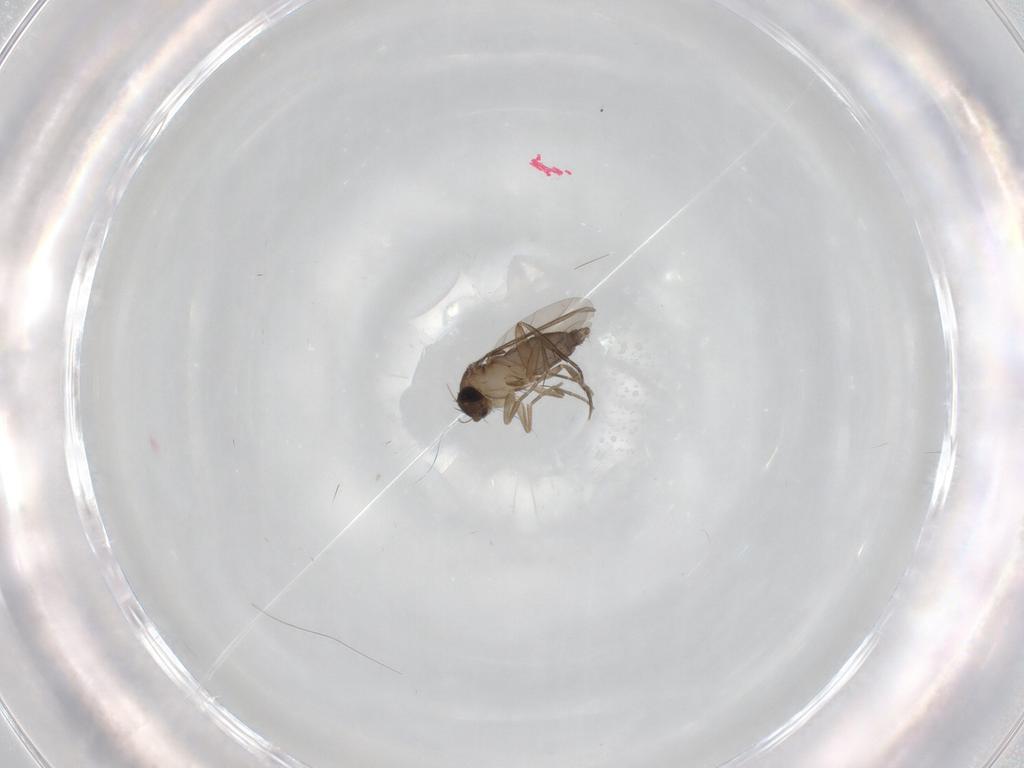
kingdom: Animalia
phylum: Arthropoda
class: Insecta
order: Diptera
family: Phoridae
